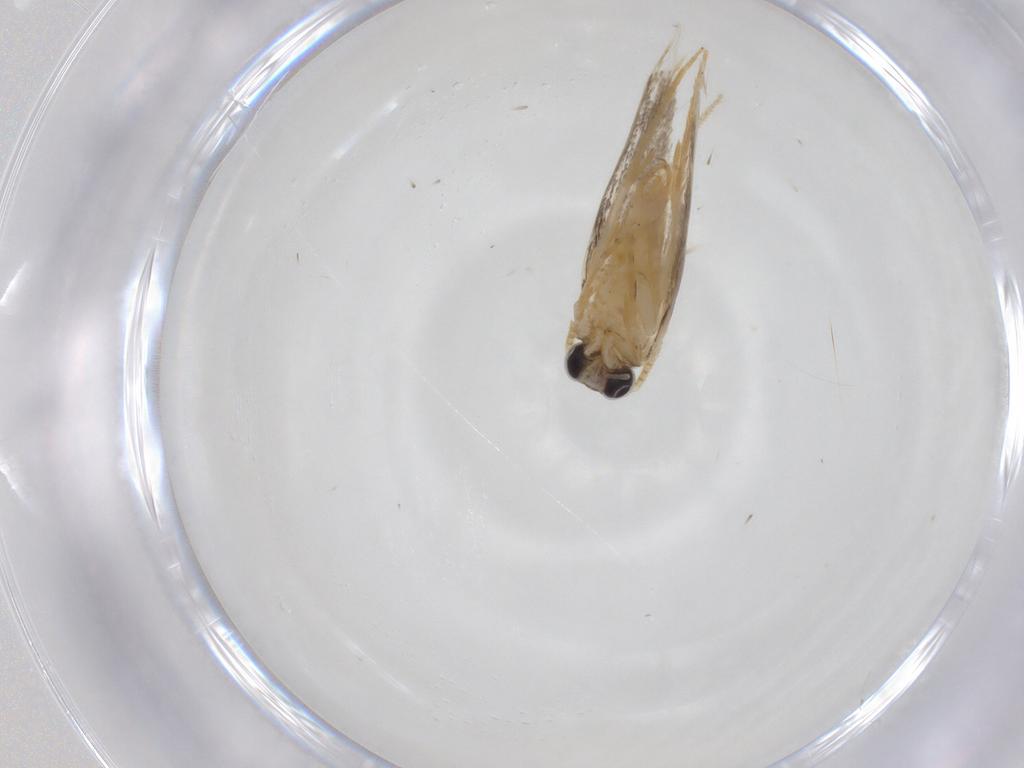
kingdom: Animalia
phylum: Arthropoda
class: Insecta
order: Lepidoptera
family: Nepticulidae
